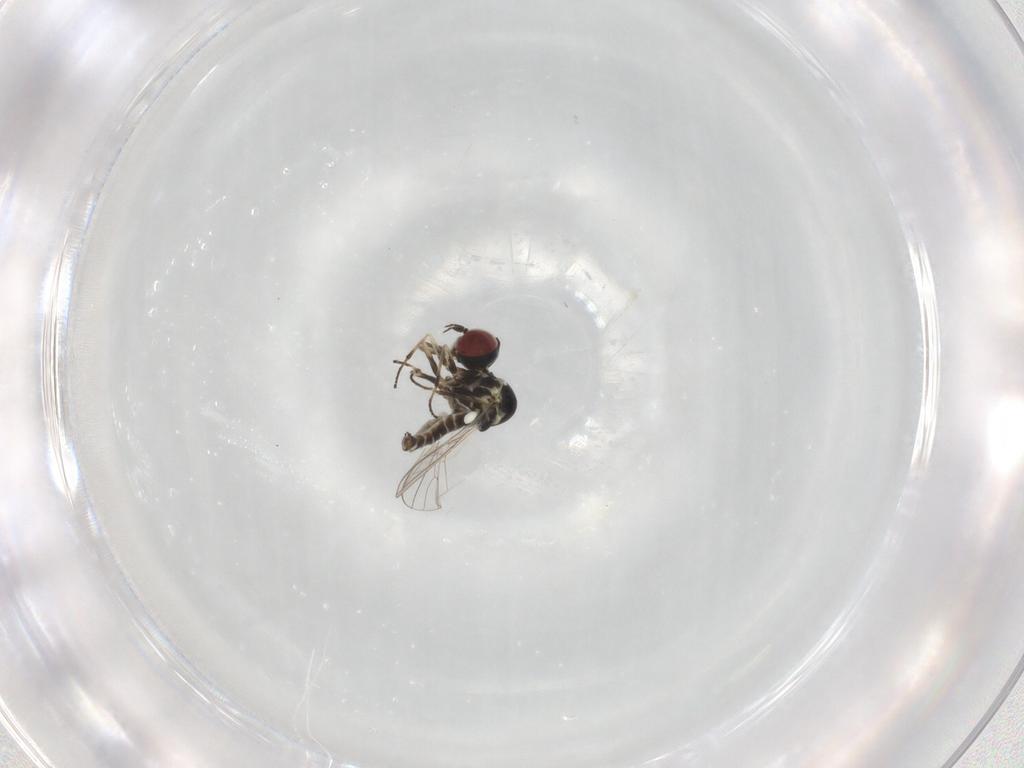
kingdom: Animalia
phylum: Arthropoda
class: Insecta
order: Diptera
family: Mythicomyiidae
